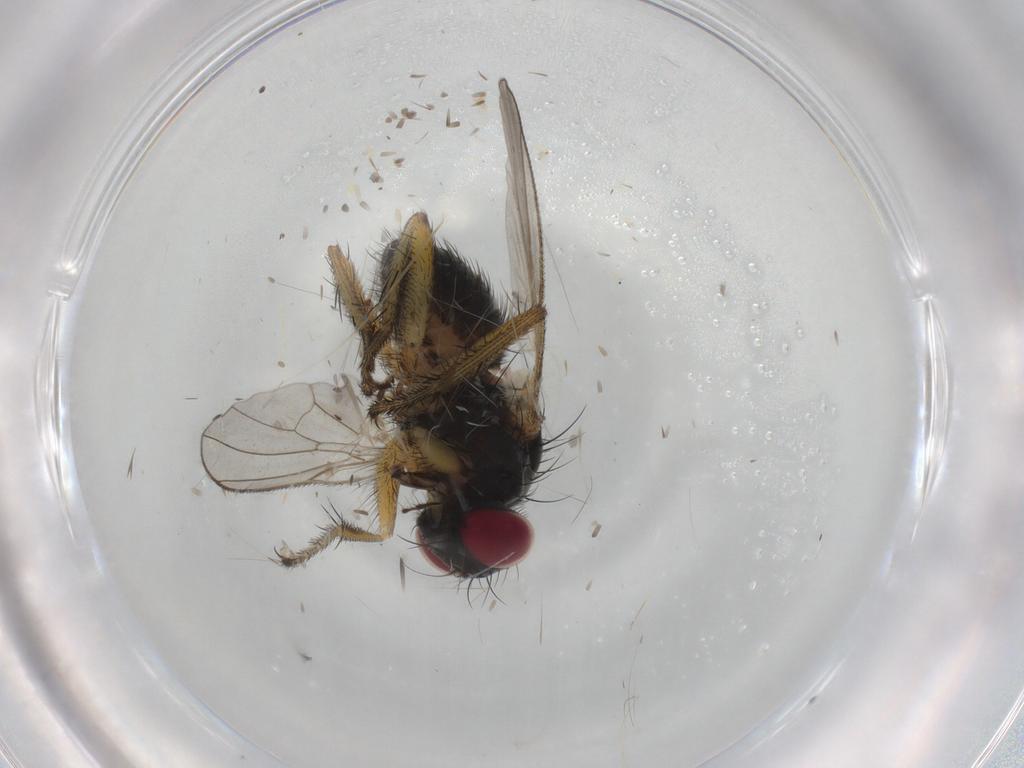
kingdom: Animalia
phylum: Arthropoda
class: Insecta
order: Diptera
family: Muscidae
